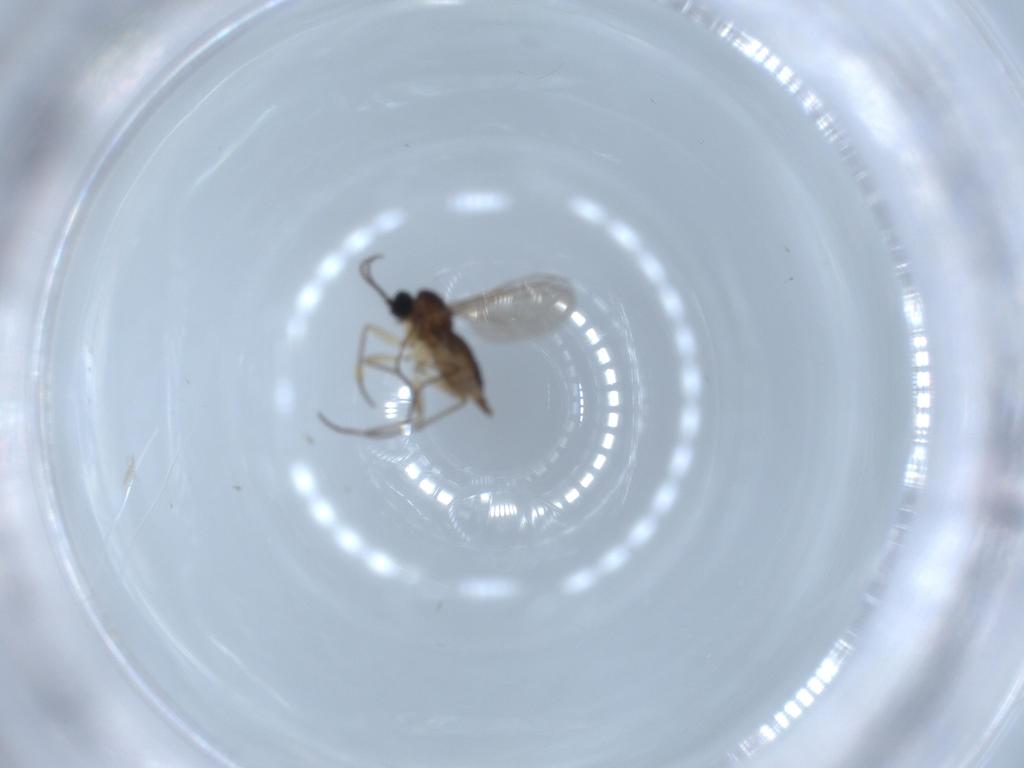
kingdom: Animalia
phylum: Arthropoda
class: Insecta
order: Diptera
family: Sciaridae
